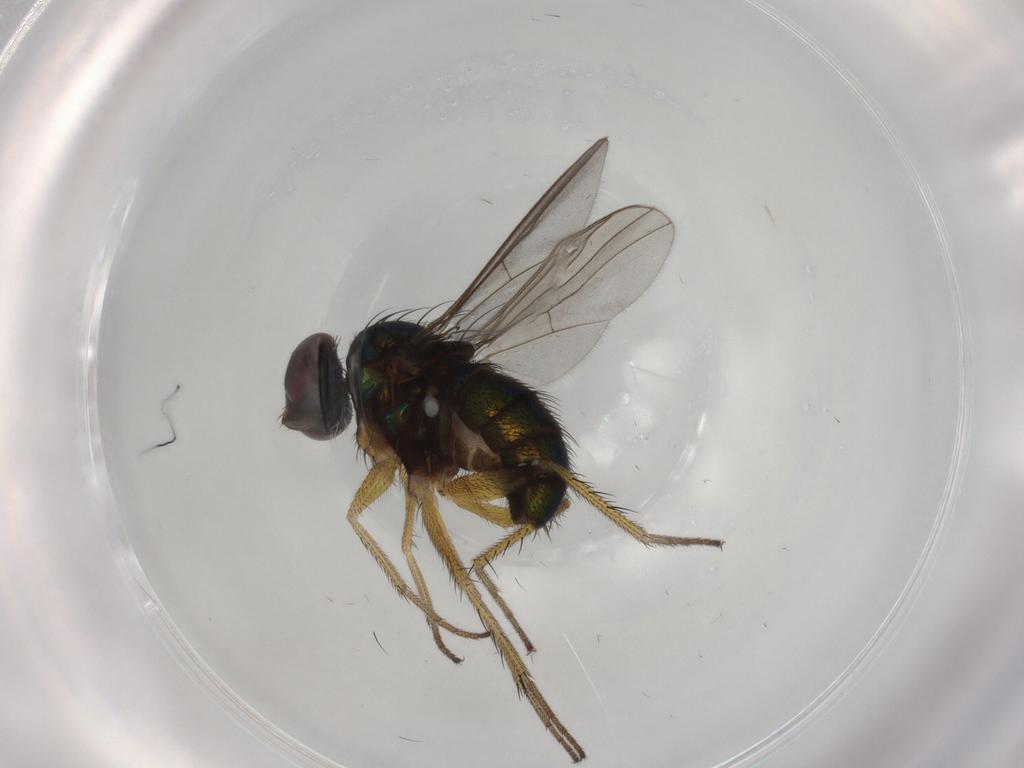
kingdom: Animalia
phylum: Arthropoda
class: Insecta
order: Diptera
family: Dolichopodidae
